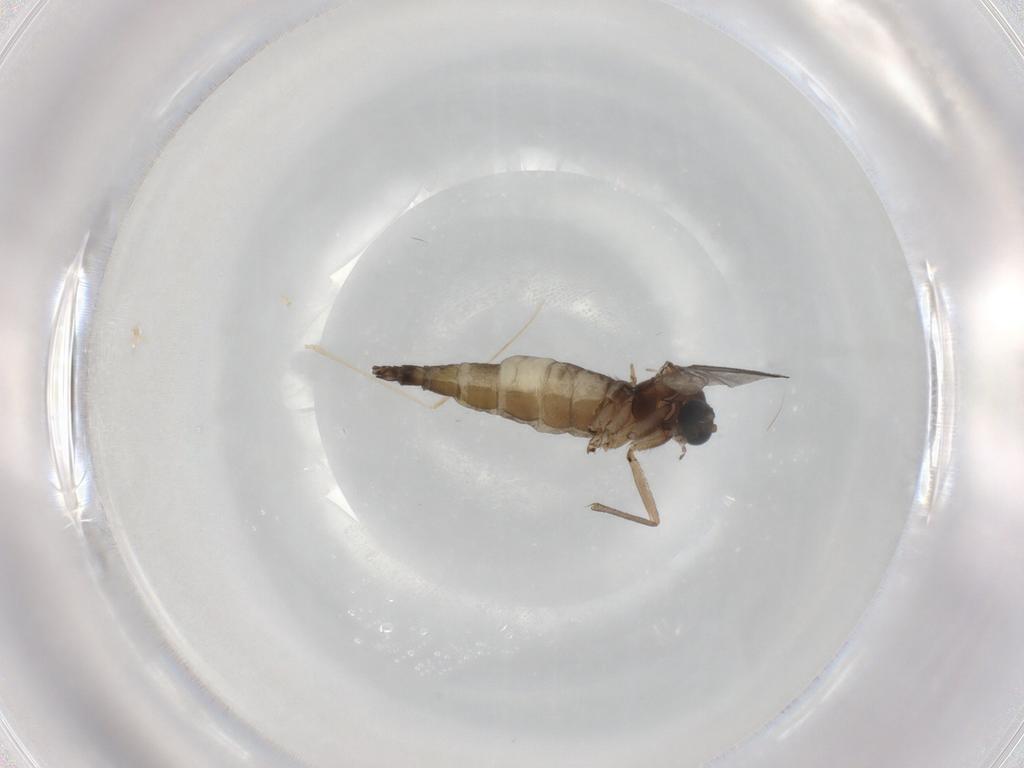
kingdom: Animalia
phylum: Arthropoda
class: Insecta
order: Diptera
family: Sciaridae
